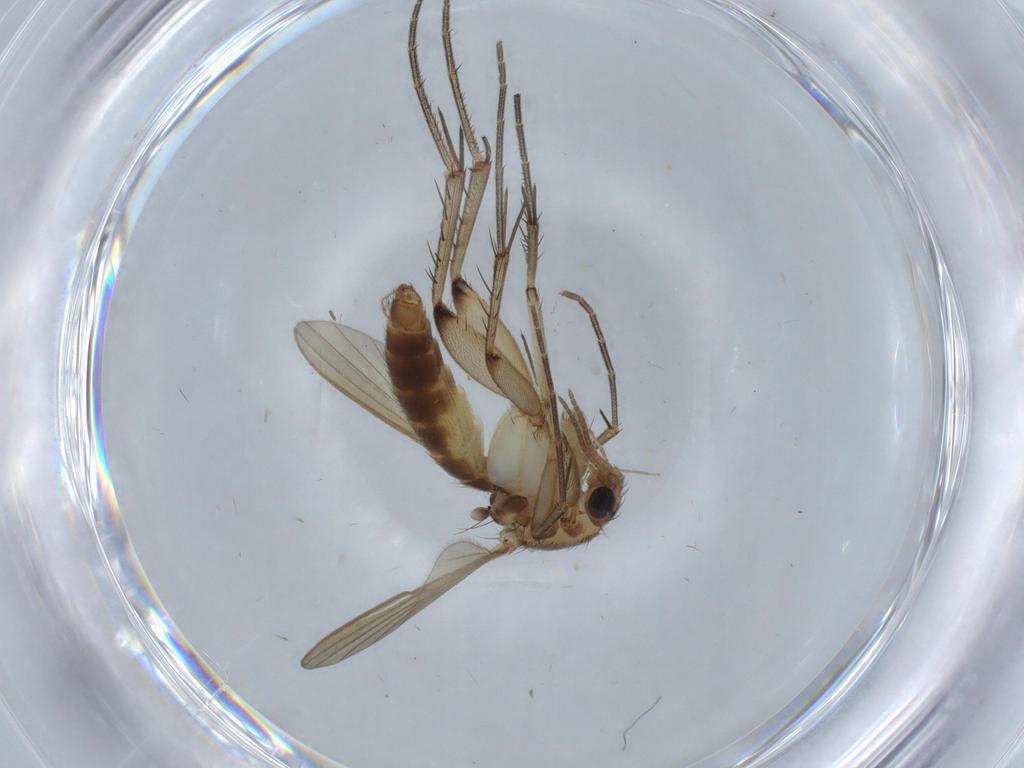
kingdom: Animalia
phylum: Arthropoda
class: Insecta
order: Diptera
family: Mycetophilidae
